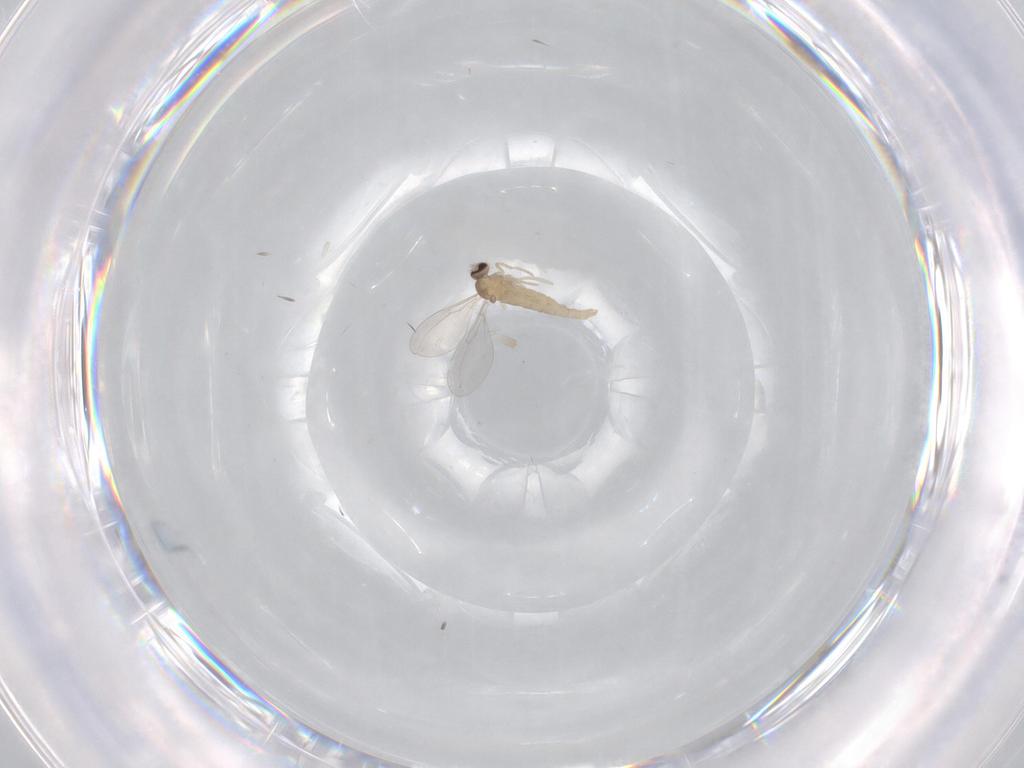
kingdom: Animalia
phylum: Arthropoda
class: Insecta
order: Diptera
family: Cecidomyiidae
